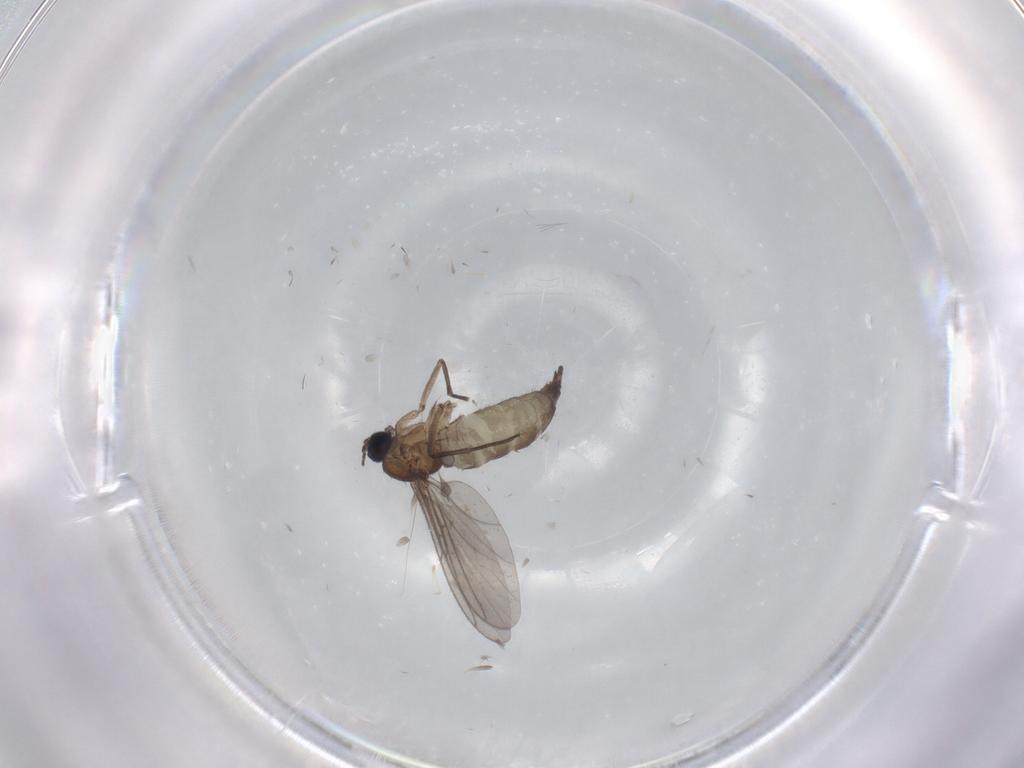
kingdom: Animalia
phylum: Arthropoda
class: Insecta
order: Diptera
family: Sciaridae
